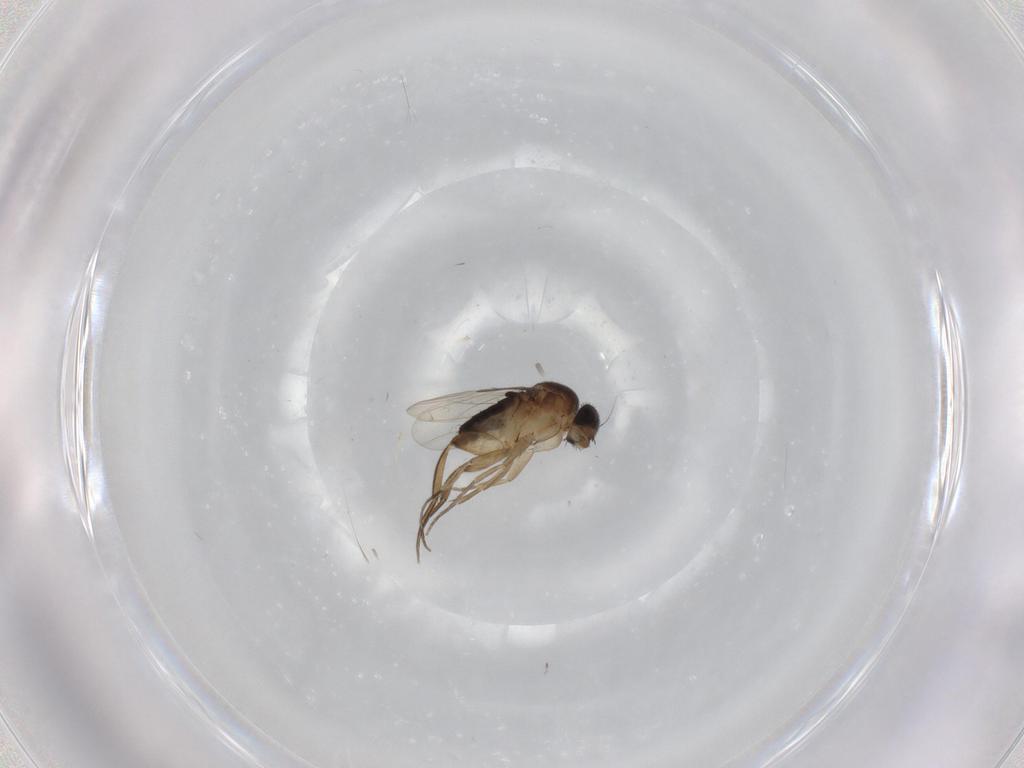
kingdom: Animalia
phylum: Arthropoda
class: Insecta
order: Diptera
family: Phoridae
